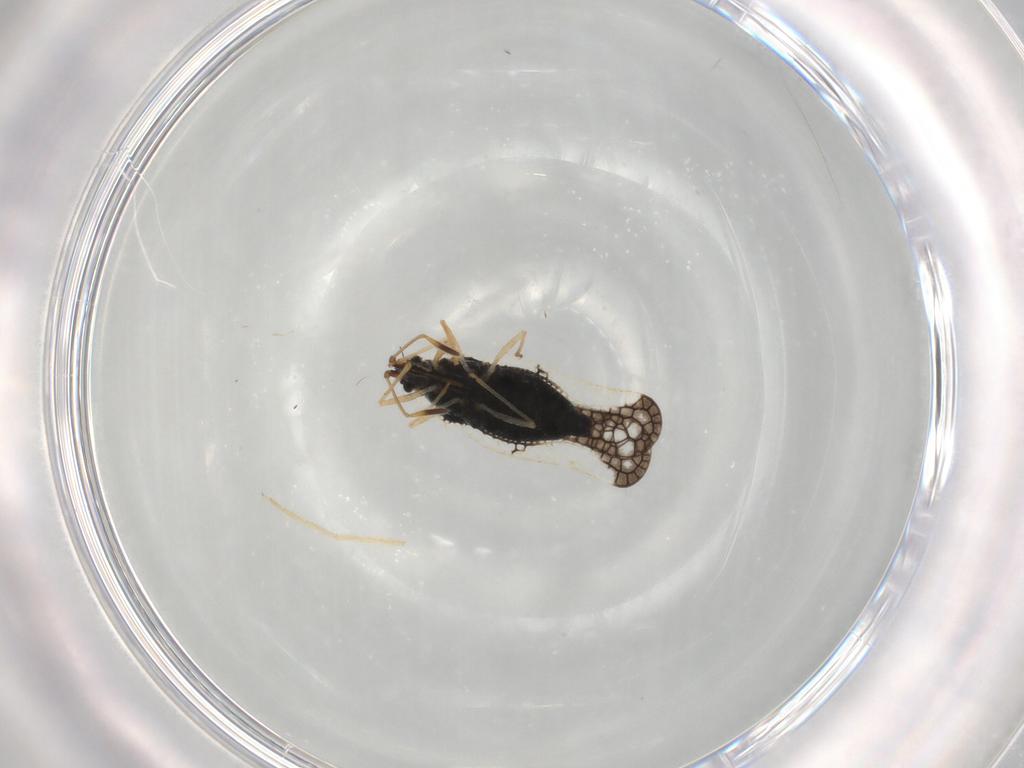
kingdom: Animalia
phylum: Arthropoda
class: Insecta
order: Hemiptera
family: Tingidae
